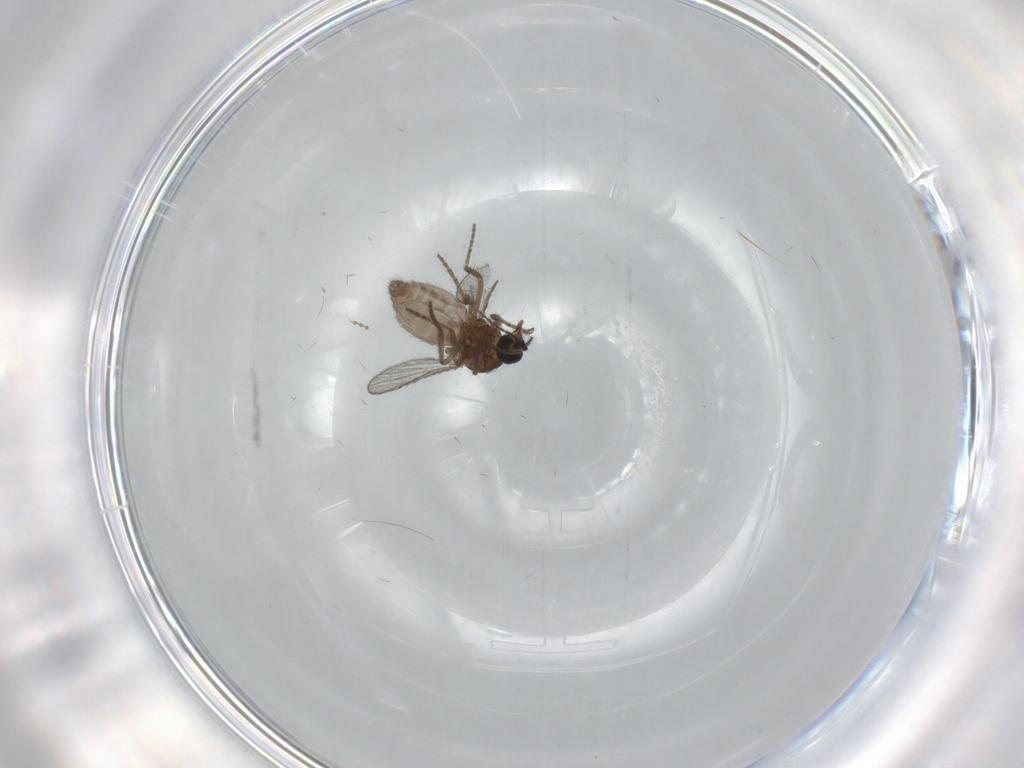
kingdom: Animalia
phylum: Arthropoda
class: Insecta
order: Diptera
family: Cecidomyiidae
